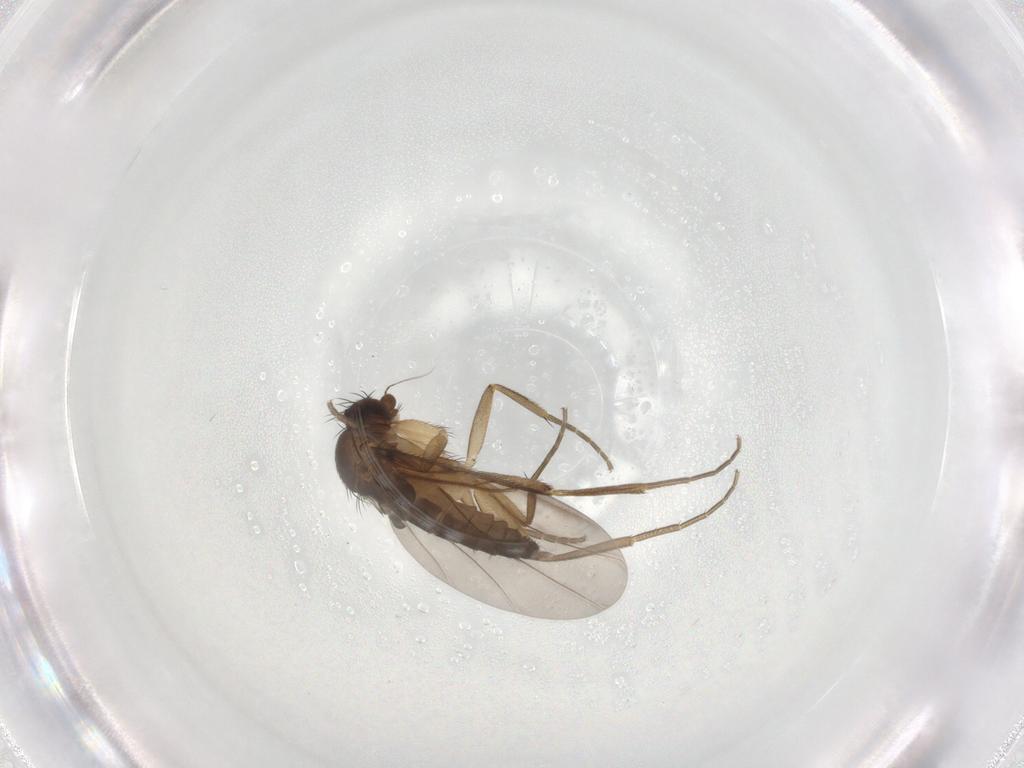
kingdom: Animalia
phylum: Arthropoda
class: Insecta
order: Diptera
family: Phoridae
